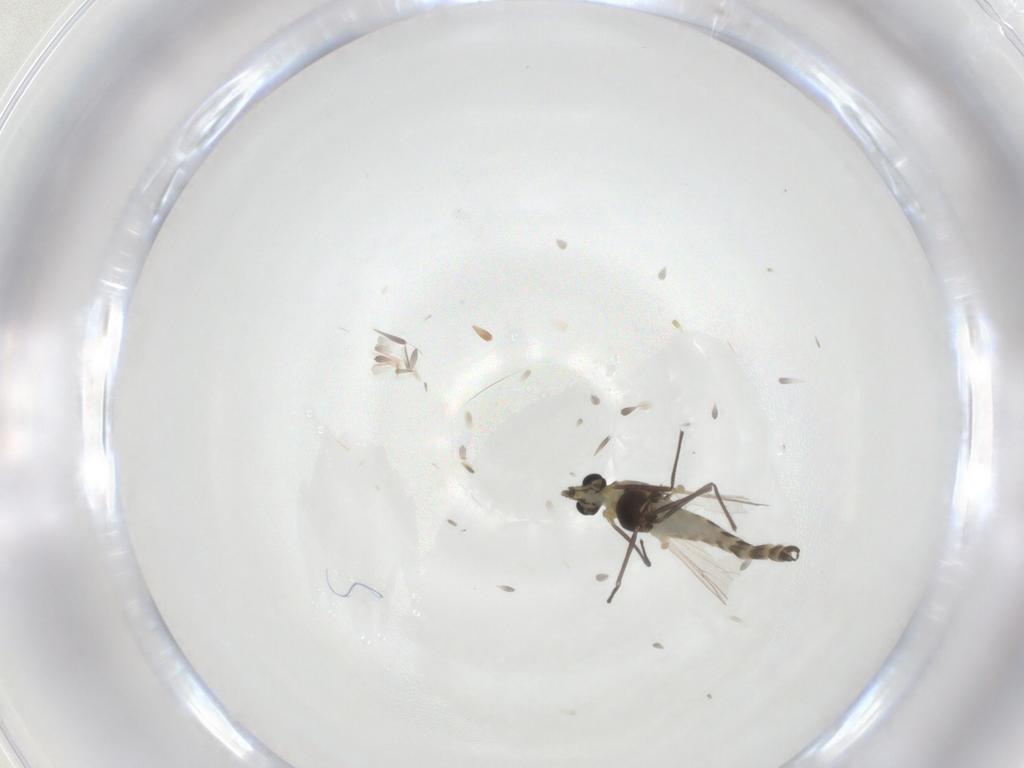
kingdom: Animalia
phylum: Arthropoda
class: Insecta
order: Diptera
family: Chironomidae
